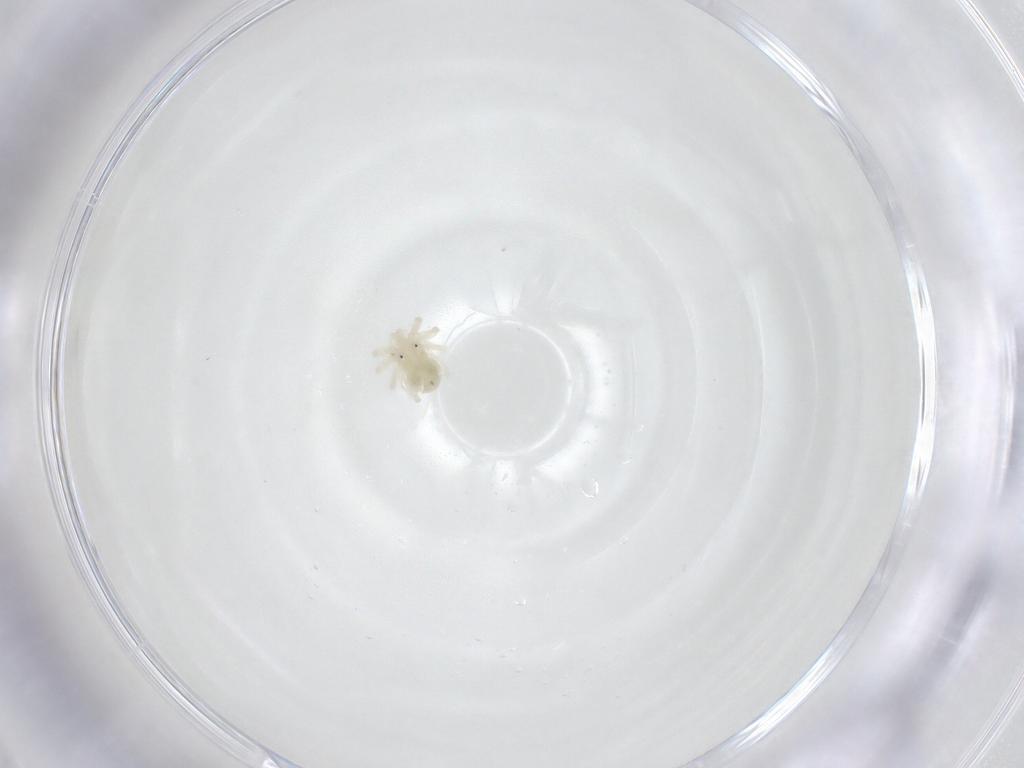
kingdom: Animalia
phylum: Arthropoda
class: Arachnida
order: Trombidiformes
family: Anystidae
